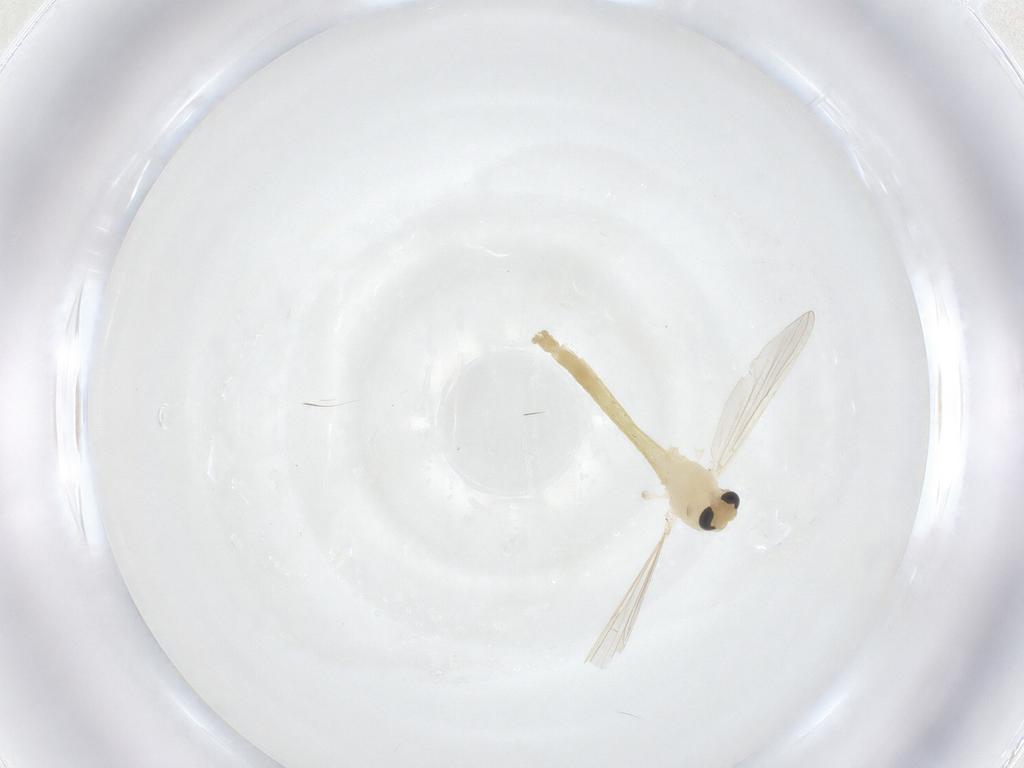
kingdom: Animalia
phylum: Arthropoda
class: Insecta
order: Diptera
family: Chironomidae
